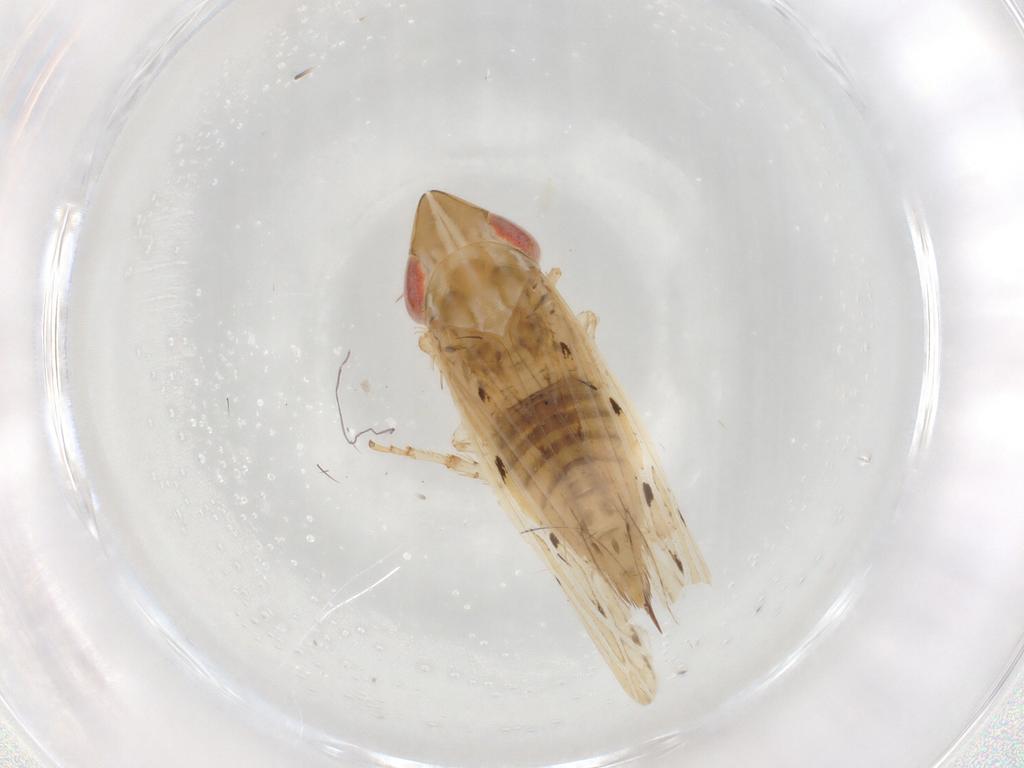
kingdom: Animalia
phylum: Arthropoda
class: Insecta
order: Hemiptera
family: Cicadellidae
